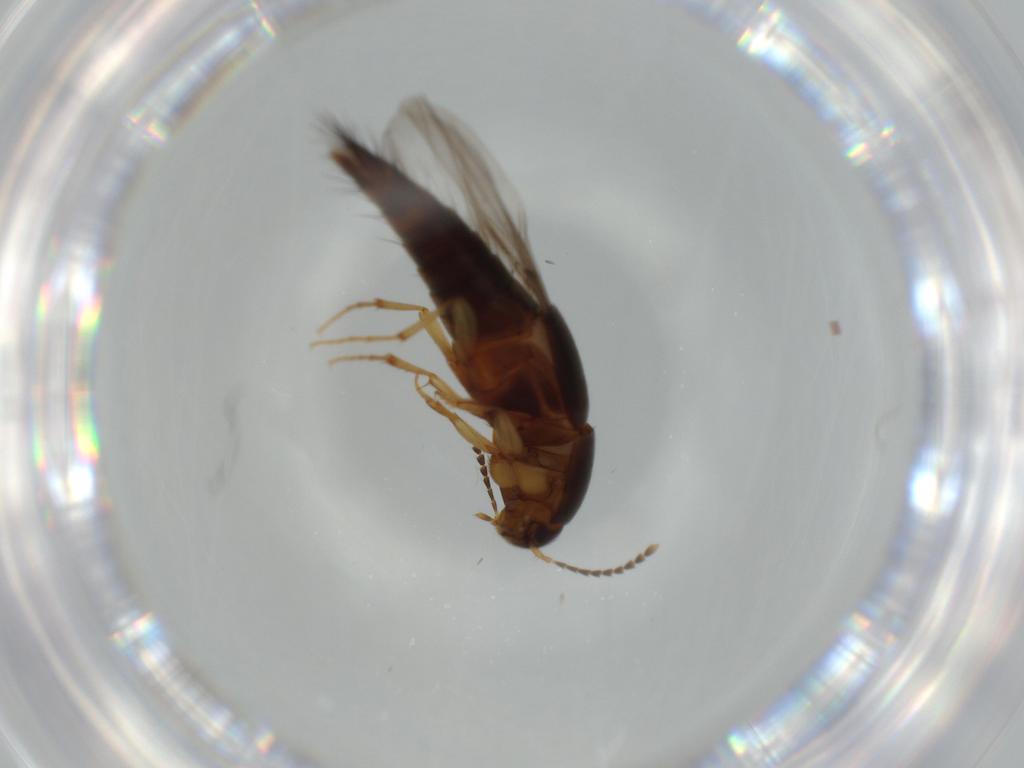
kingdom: Animalia
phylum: Arthropoda
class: Insecta
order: Coleoptera
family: Staphylinidae
